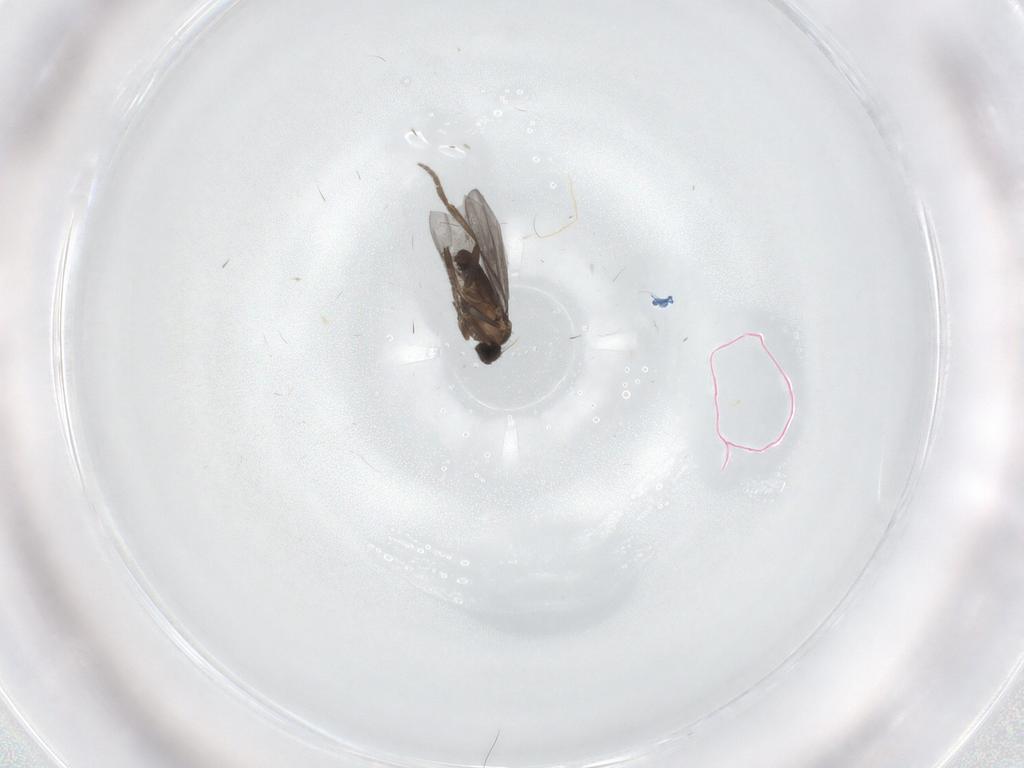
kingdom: Animalia
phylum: Arthropoda
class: Insecta
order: Diptera
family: Phoridae
